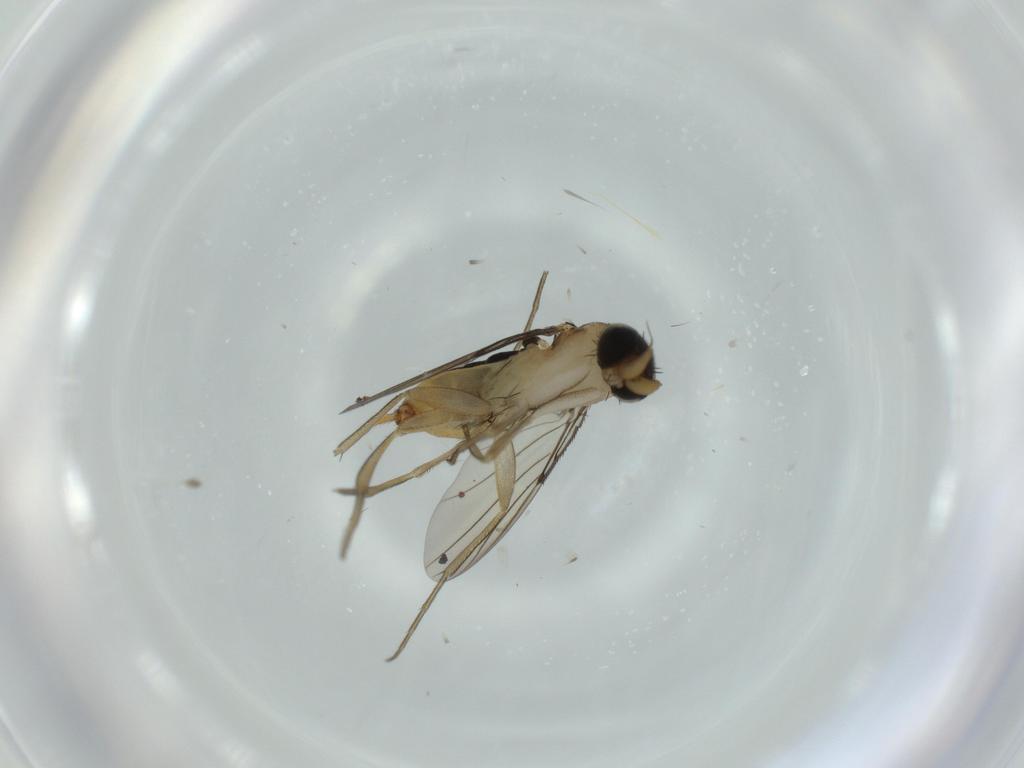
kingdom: Animalia
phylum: Arthropoda
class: Insecta
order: Diptera
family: Phoridae
